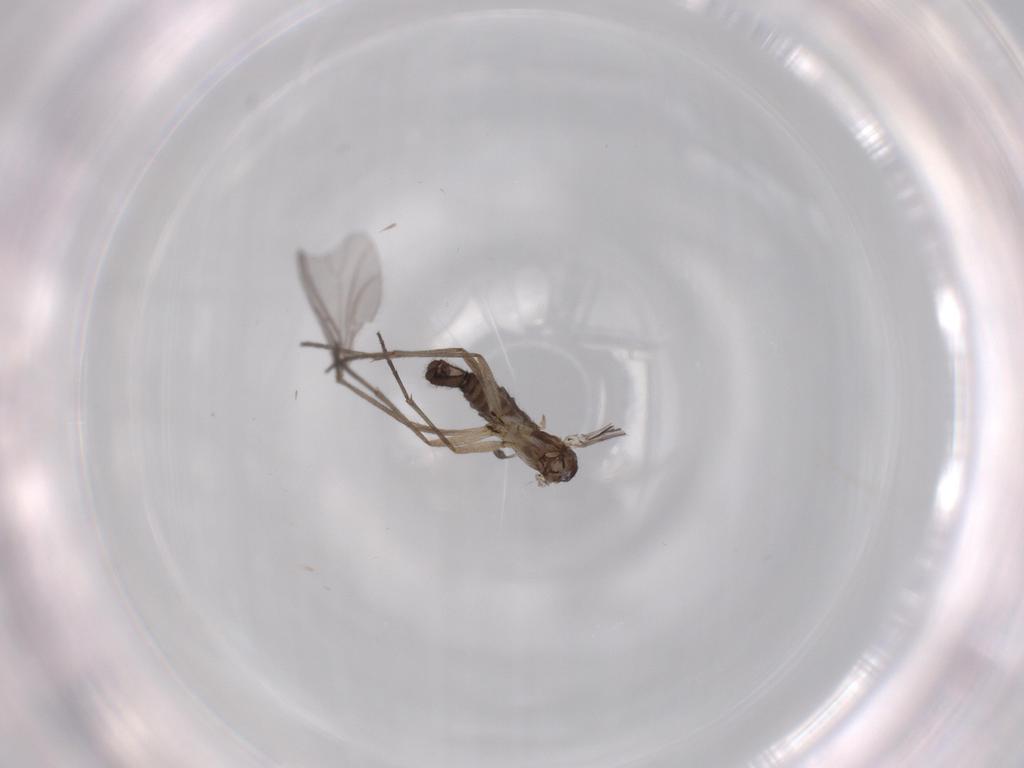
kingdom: Animalia
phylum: Arthropoda
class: Insecta
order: Diptera
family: Sciaridae
